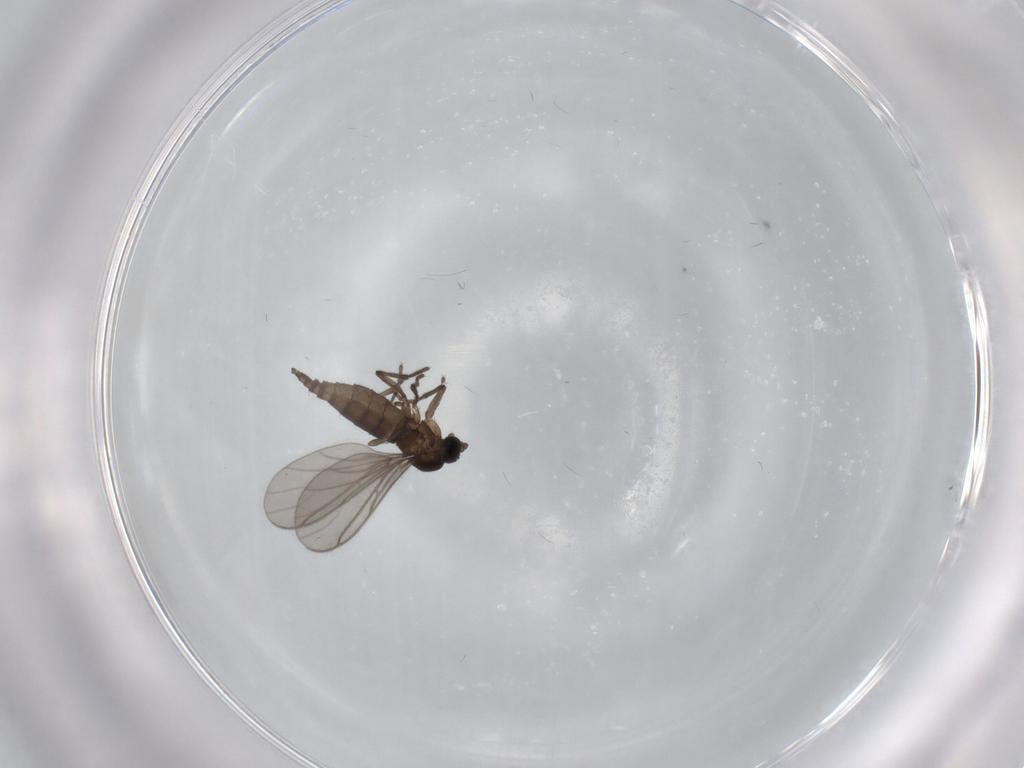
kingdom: Animalia
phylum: Arthropoda
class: Insecta
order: Diptera
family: Sciaridae
